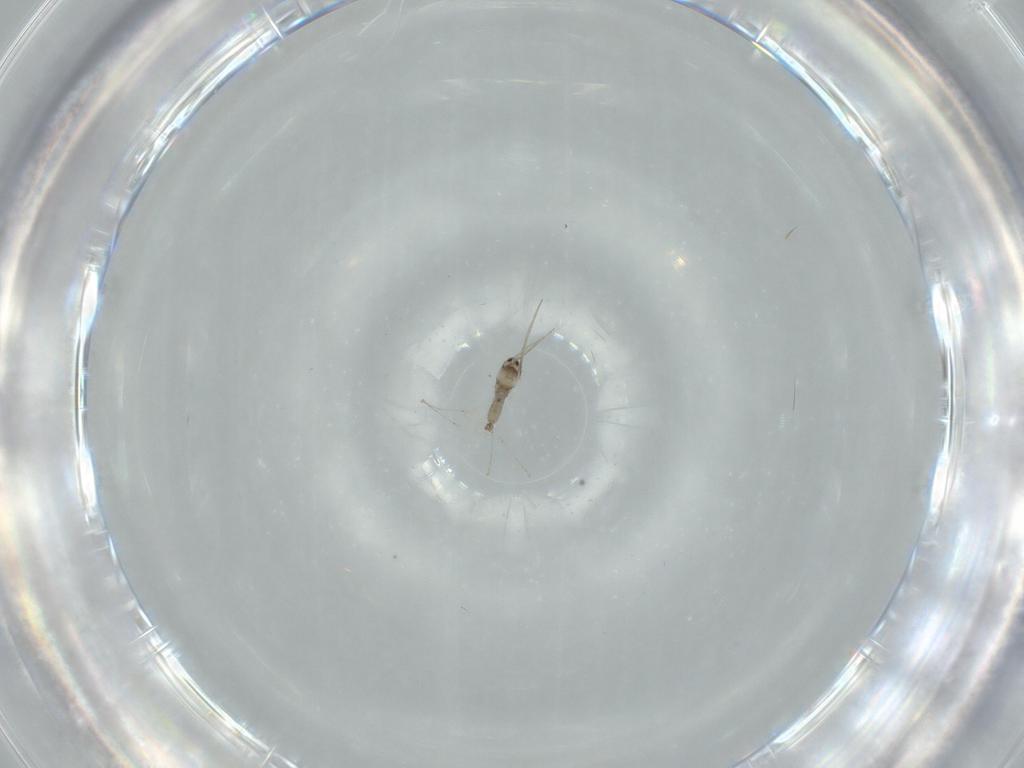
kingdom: Animalia
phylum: Arthropoda
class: Insecta
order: Diptera
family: Cecidomyiidae
